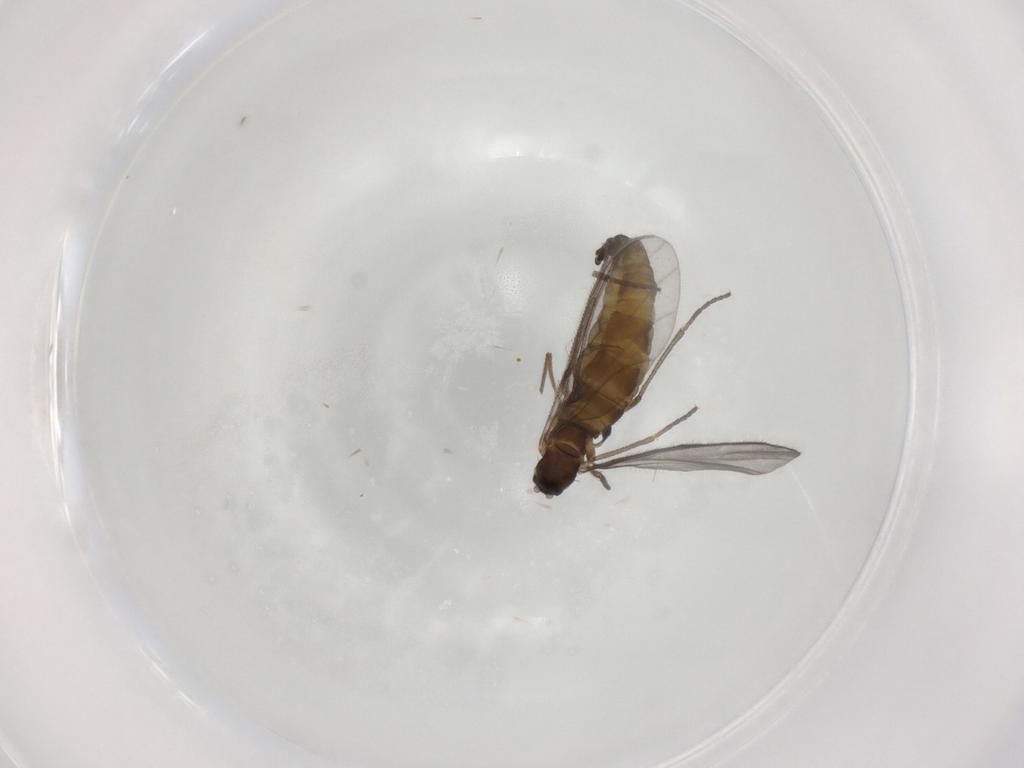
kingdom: Animalia
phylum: Arthropoda
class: Insecta
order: Diptera
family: Sciaridae
